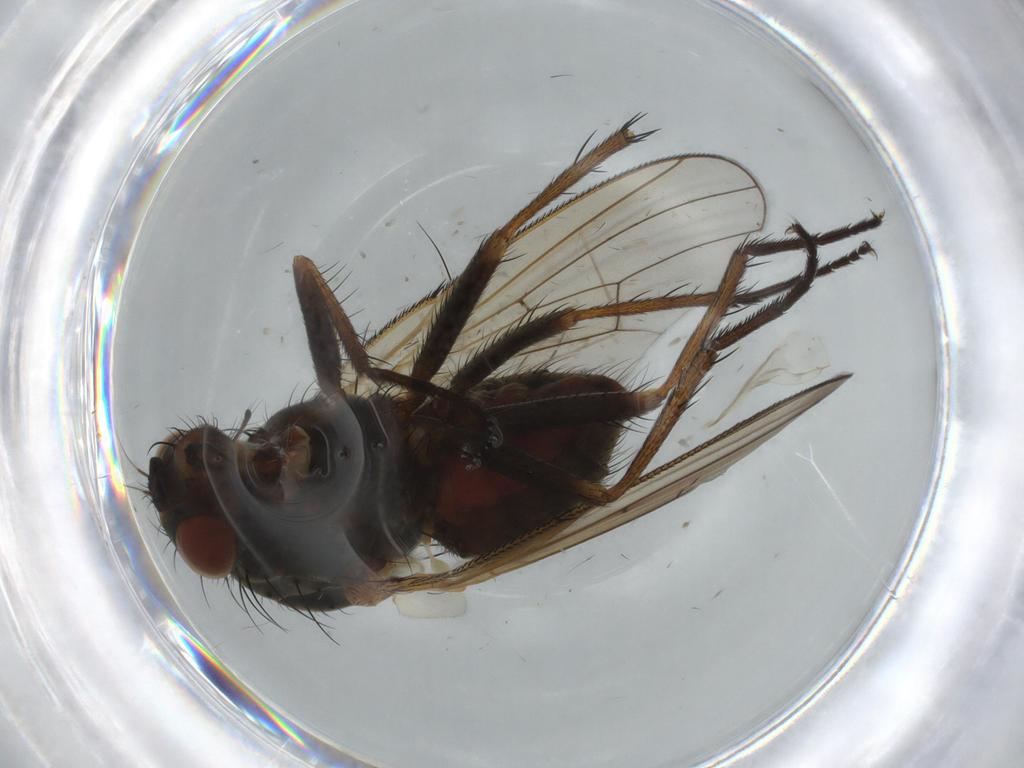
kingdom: Animalia
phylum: Arthropoda
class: Insecta
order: Diptera
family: Anthomyiidae
